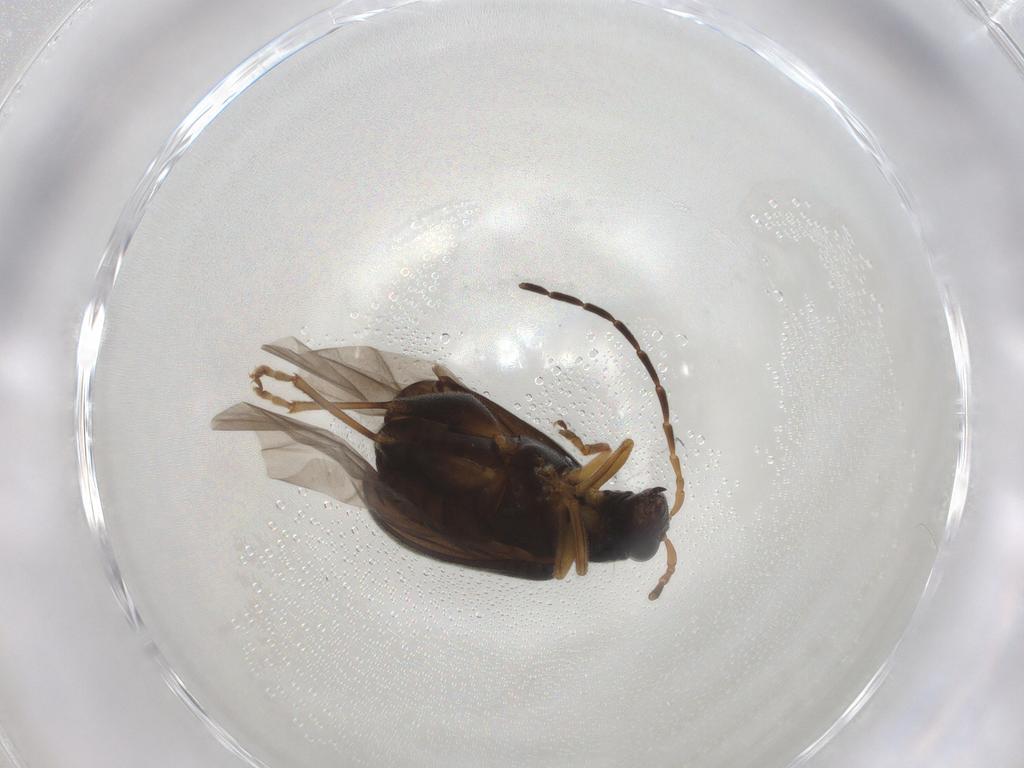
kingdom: Animalia
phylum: Arthropoda
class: Insecta
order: Coleoptera
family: Chrysomelidae
